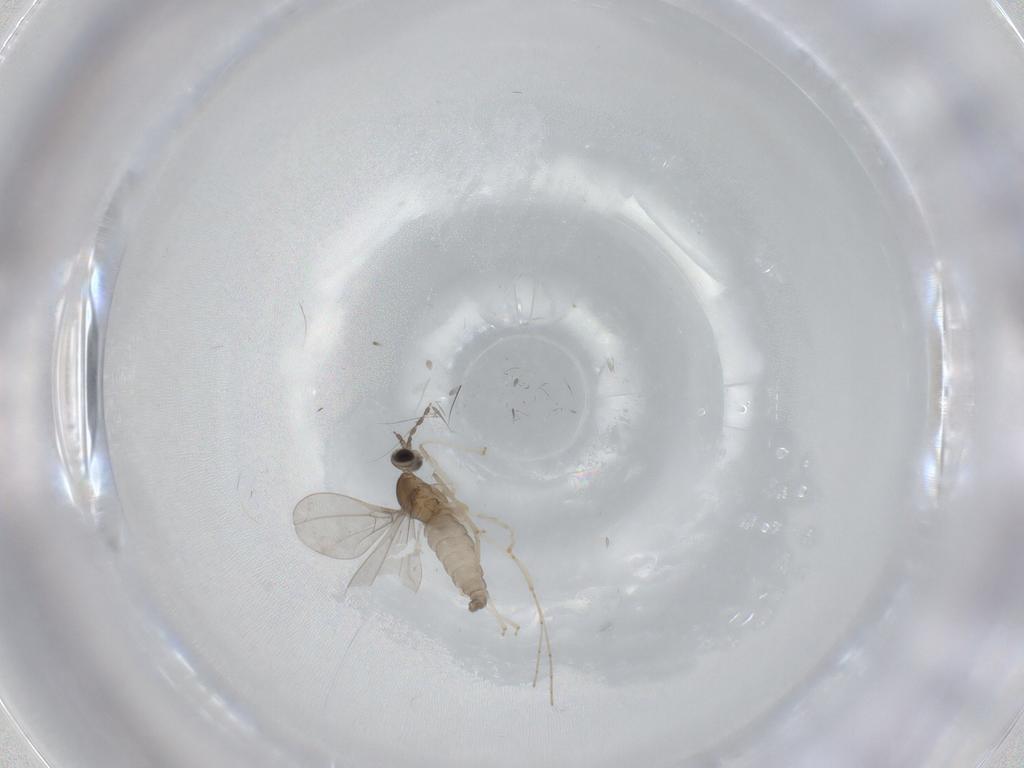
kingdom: Animalia
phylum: Arthropoda
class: Insecta
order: Diptera
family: Cecidomyiidae
